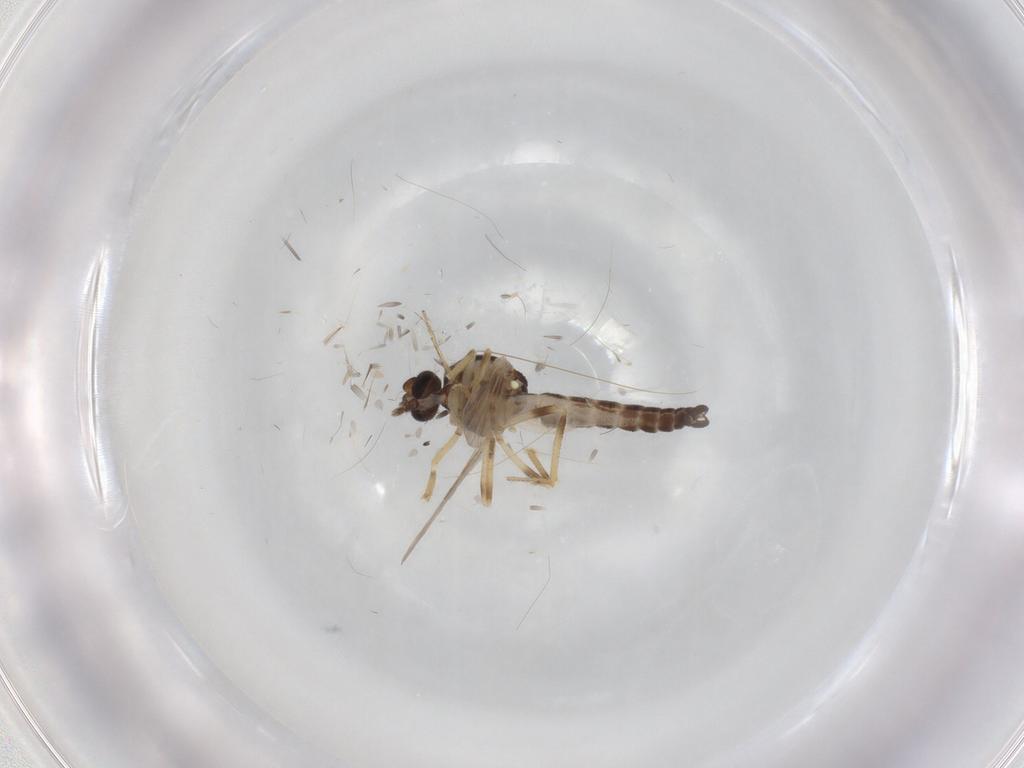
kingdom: Animalia
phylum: Arthropoda
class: Insecta
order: Diptera
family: Ceratopogonidae
